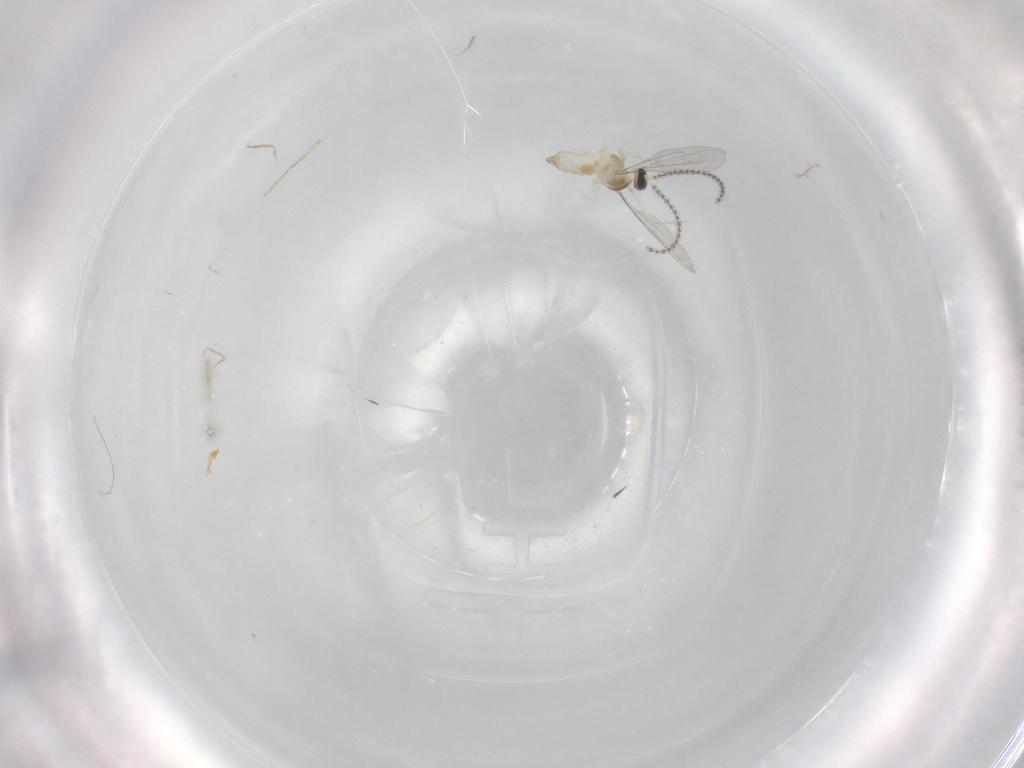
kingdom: Animalia
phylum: Arthropoda
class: Insecta
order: Diptera
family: Cecidomyiidae
